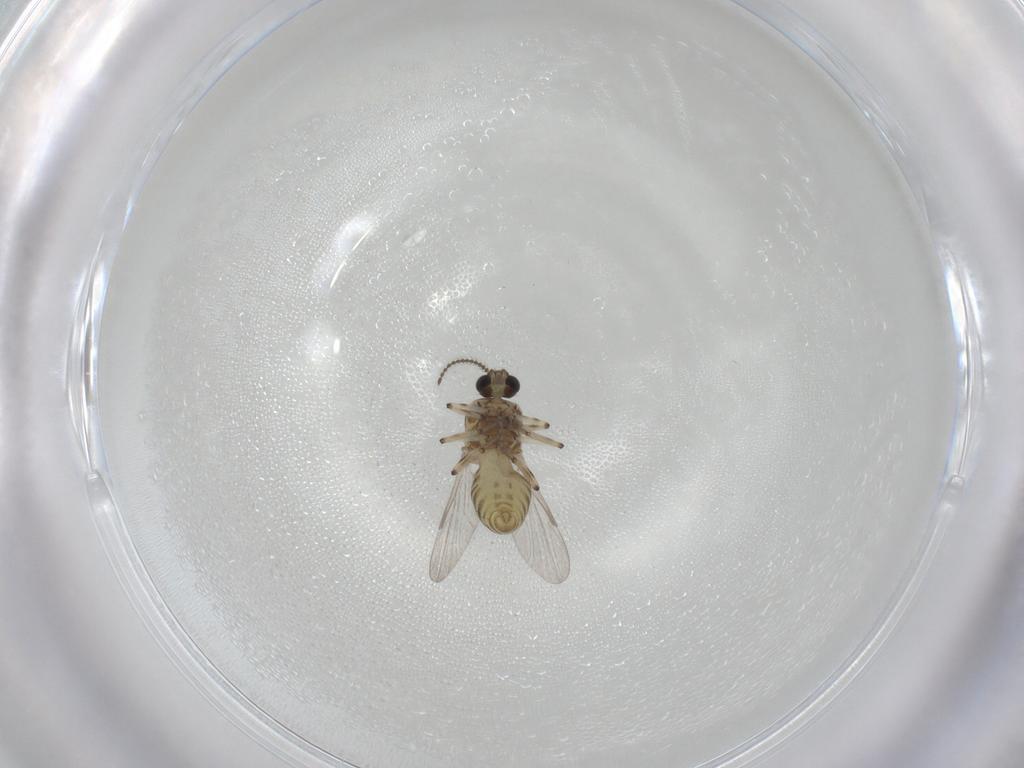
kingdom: Animalia
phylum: Arthropoda
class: Insecta
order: Diptera
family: Ceratopogonidae
